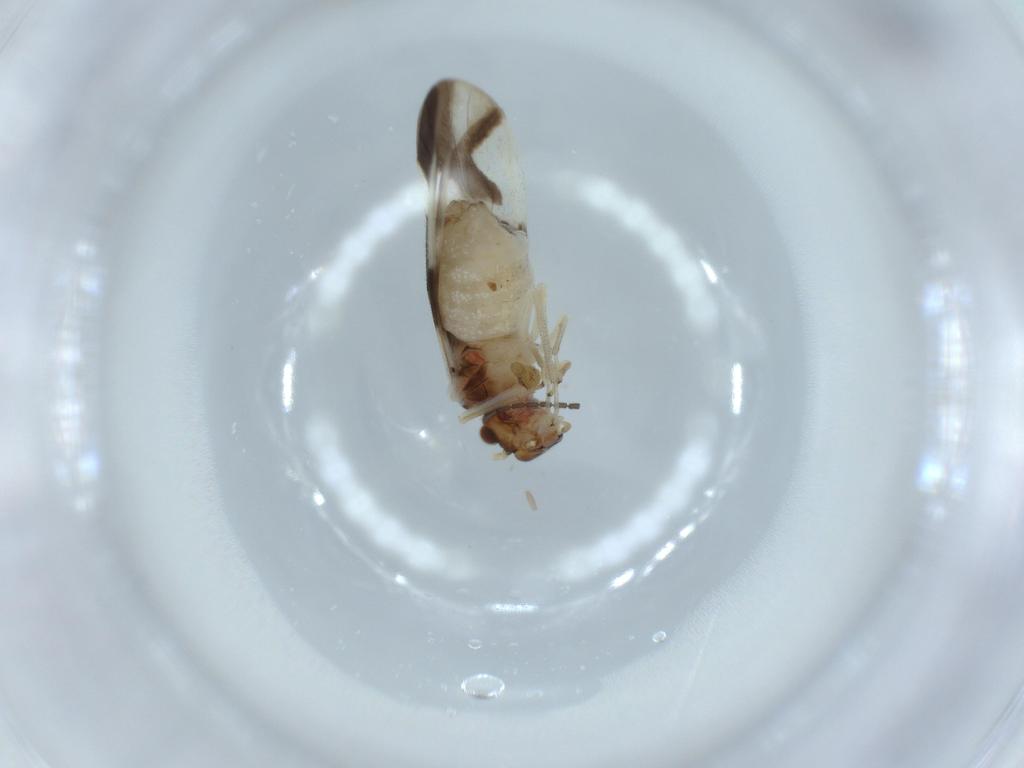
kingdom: Animalia
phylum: Arthropoda
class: Insecta
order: Psocodea
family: Caeciliusidae
